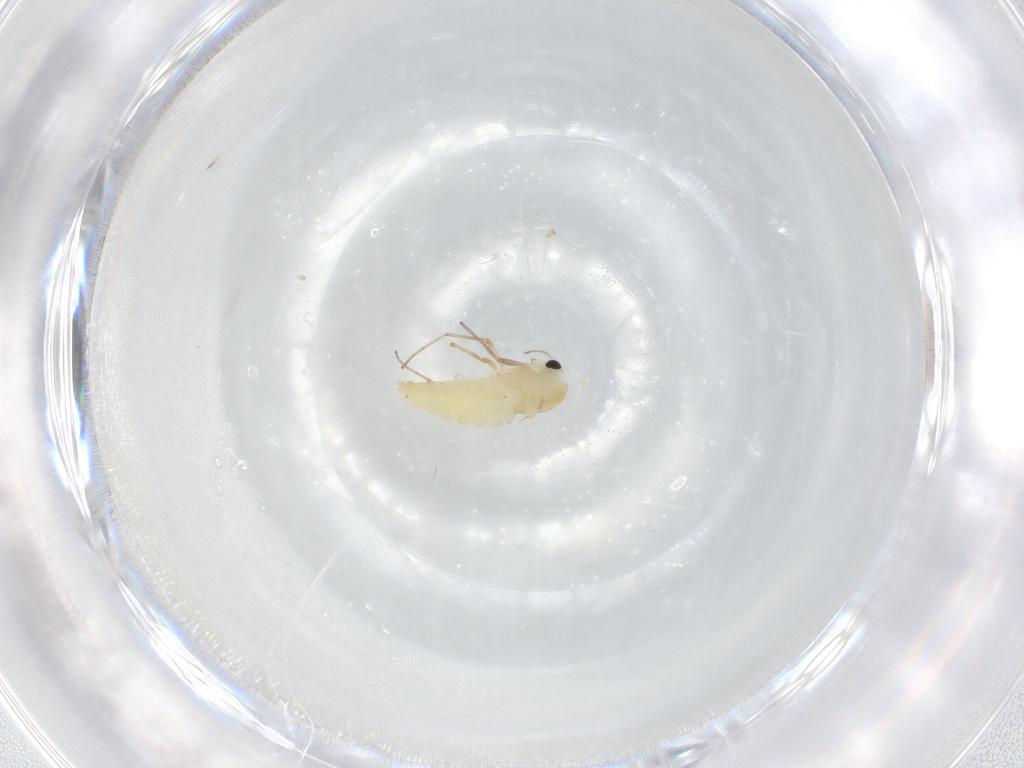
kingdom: Animalia
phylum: Arthropoda
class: Insecta
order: Diptera
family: Chironomidae
